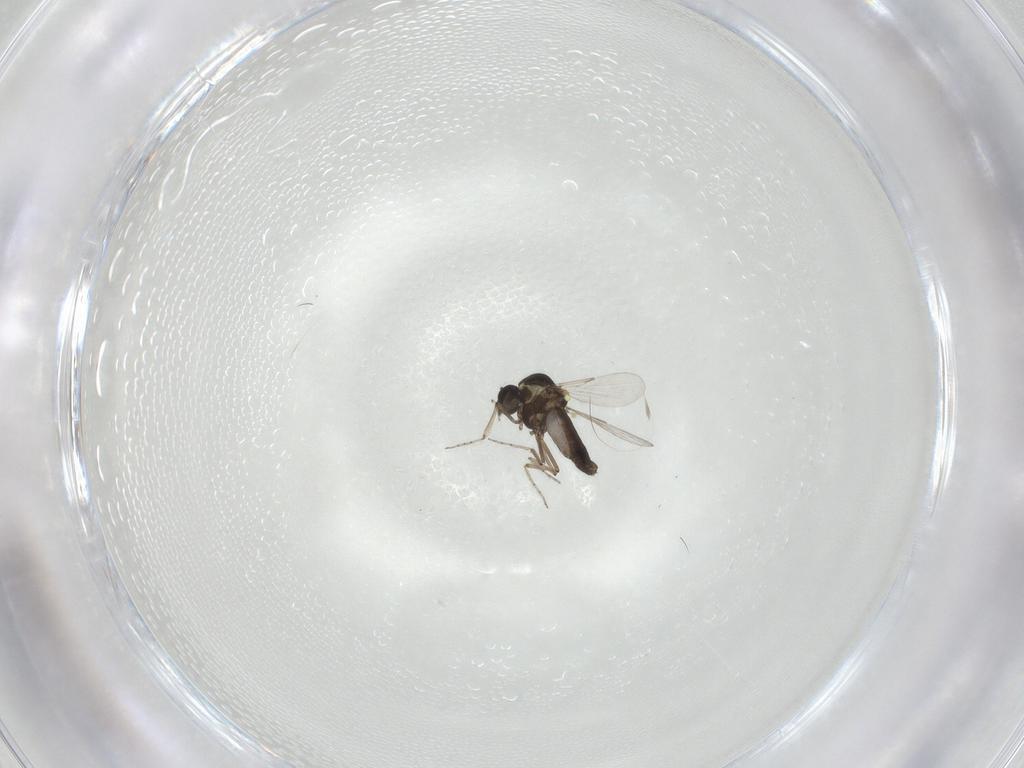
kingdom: Animalia
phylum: Arthropoda
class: Insecta
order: Diptera
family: Ceratopogonidae
